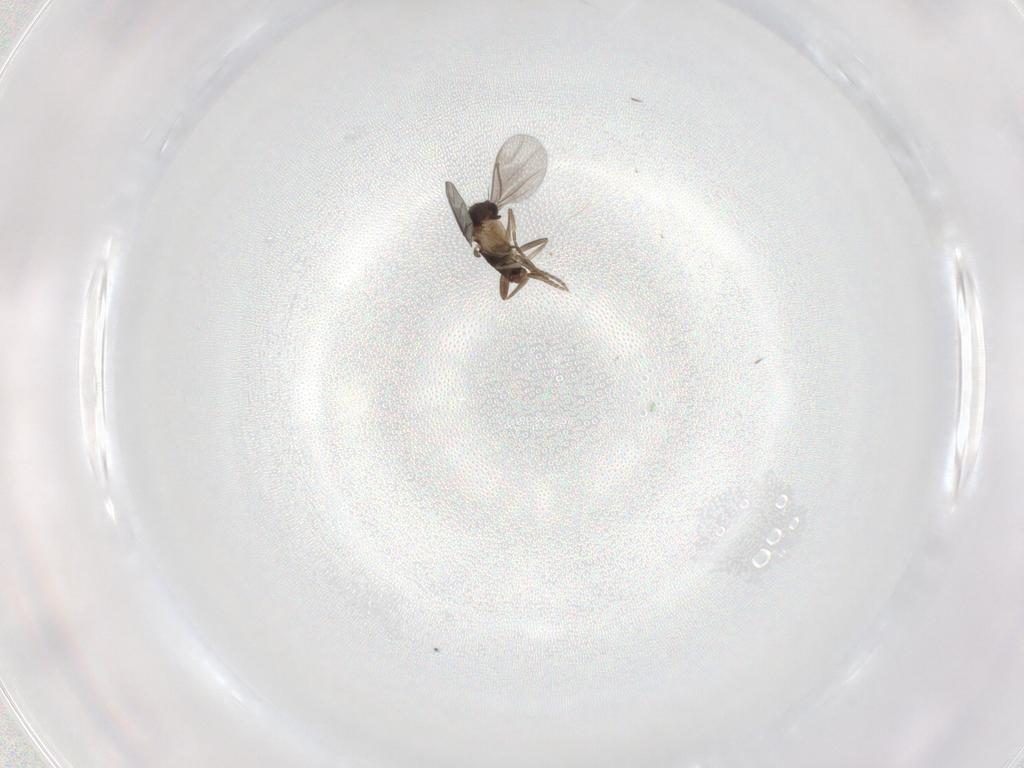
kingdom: Animalia
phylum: Arthropoda
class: Insecta
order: Diptera
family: Chironomidae
